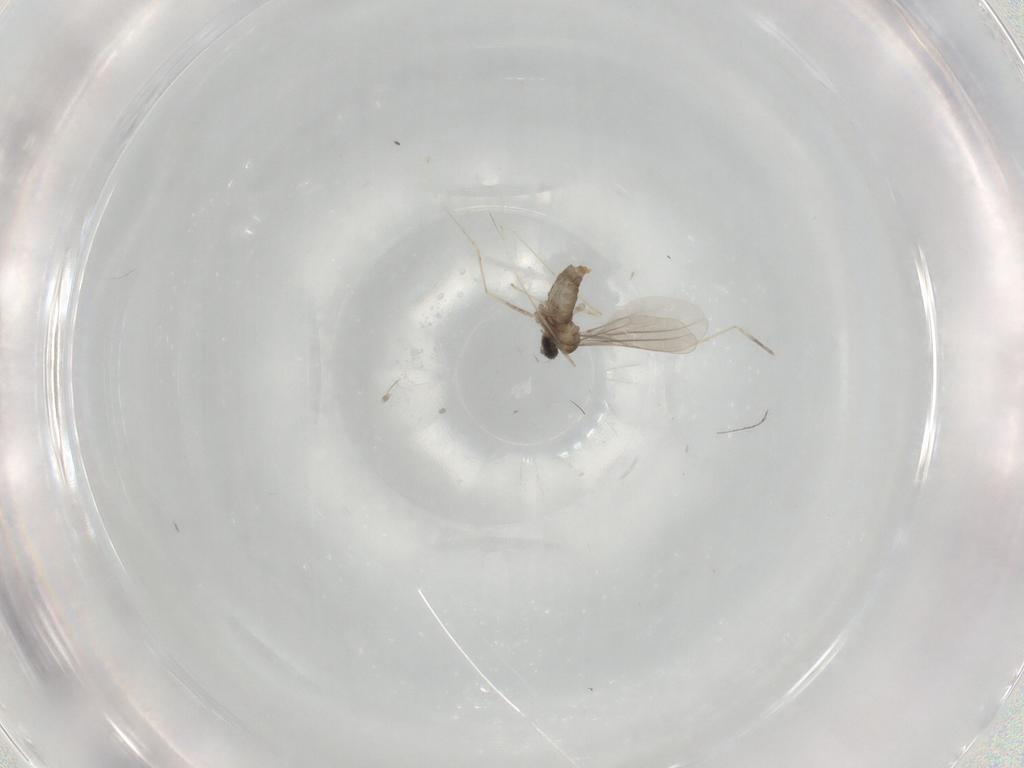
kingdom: Animalia
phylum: Arthropoda
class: Insecta
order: Diptera
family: Cecidomyiidae
